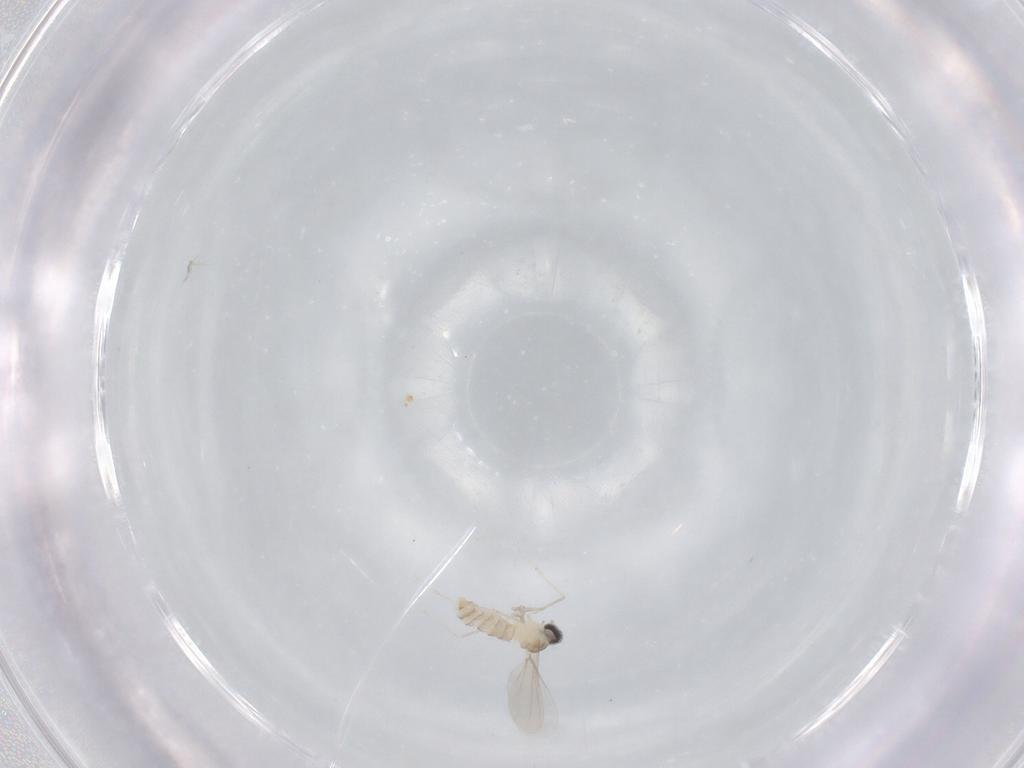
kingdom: Animalia
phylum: Arthropoda
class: Insecta
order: Diptera
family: Cecidomyiidae
